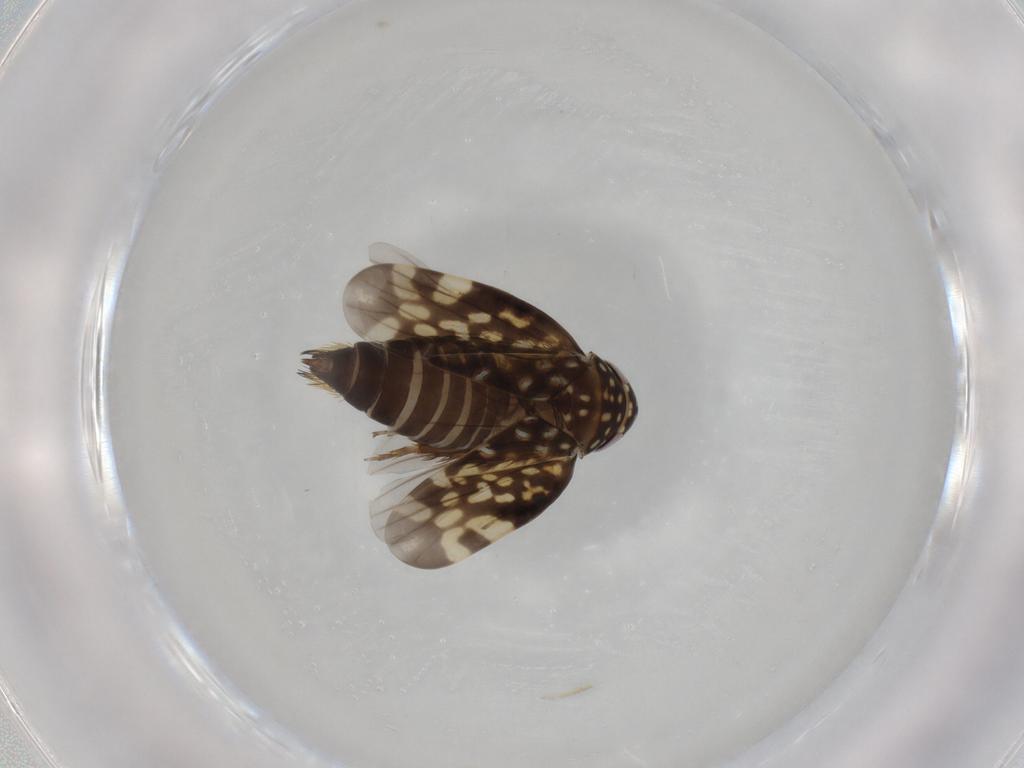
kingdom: Animalia
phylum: Arthropoda
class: Insecta
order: Hemiptera
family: Cicadellidae
